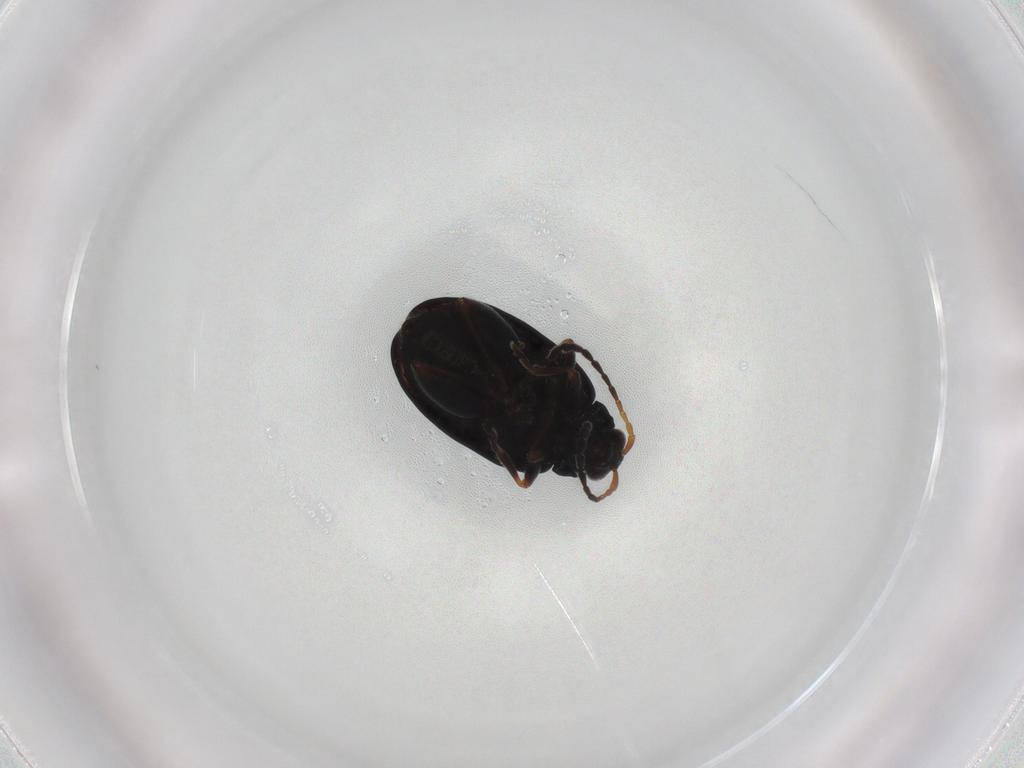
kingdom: Animalia
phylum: Arthropoda
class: Insecta
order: Coleoptera
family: Chrysomelidae
